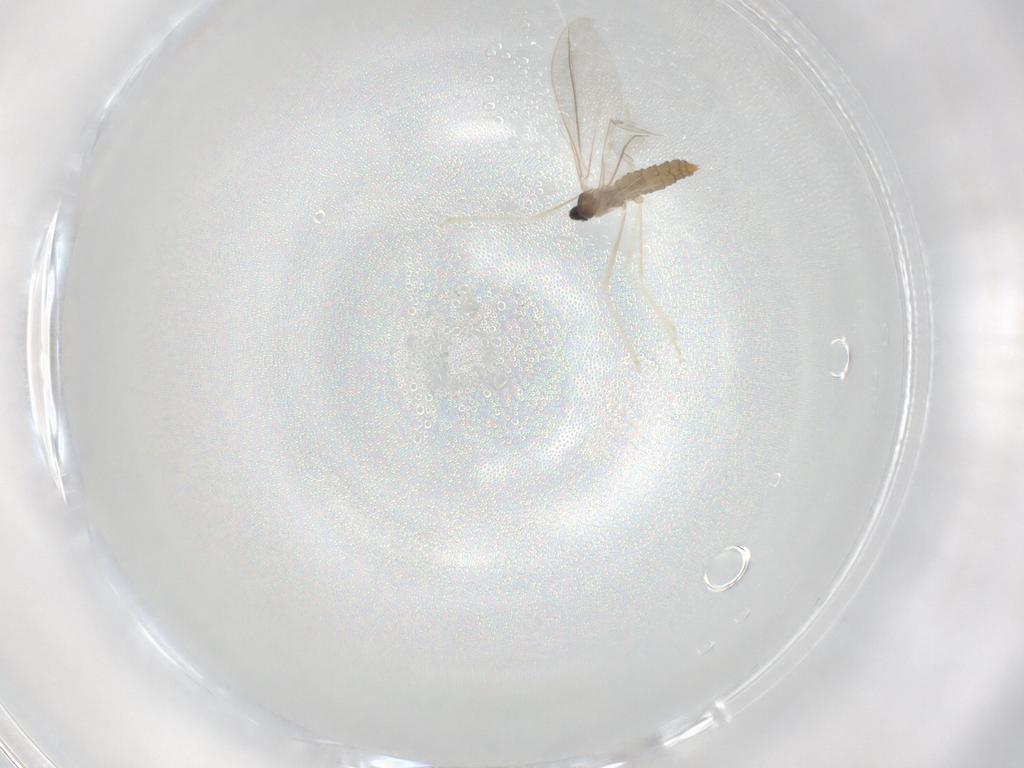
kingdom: Animalia
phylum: Arthropoda
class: Insecta
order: Diptera
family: Cecidomyiidae
